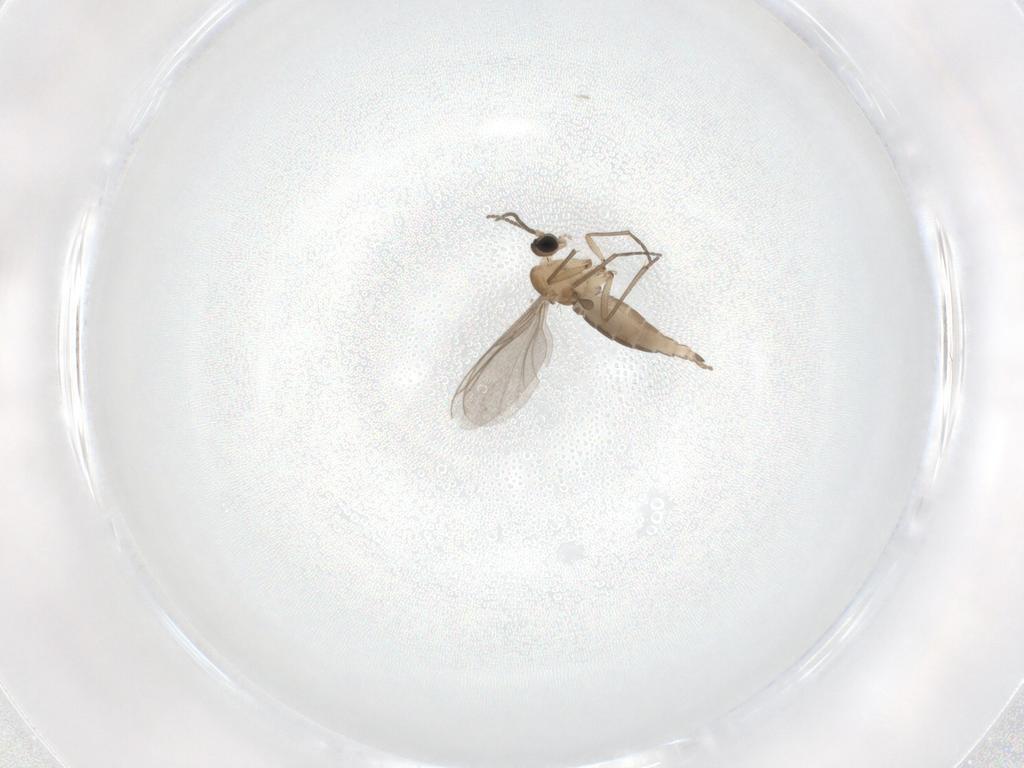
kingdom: Animalia
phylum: Arthropoda
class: Insecta
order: Diptera
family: Sciaridae
